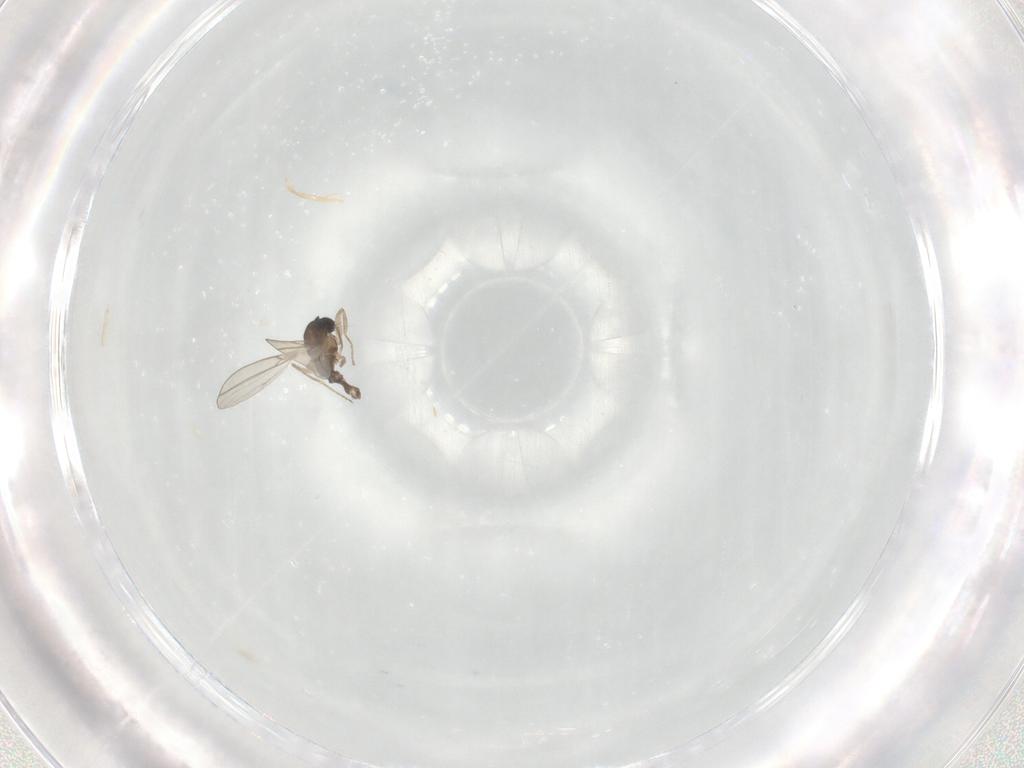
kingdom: Animalia
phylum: Arthropoda
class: Insecta
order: Diptera
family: Cecidomyiidae
